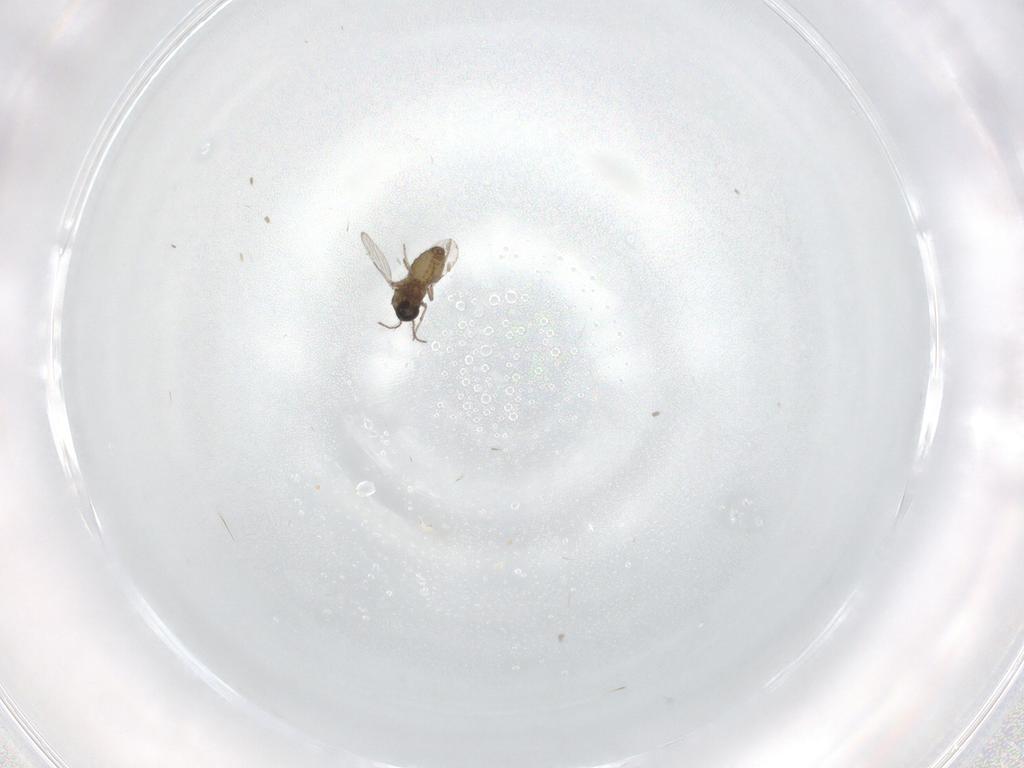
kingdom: Animalia
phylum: Arthropoda
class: Insecta
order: Diptera
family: Ceratopogonidae
